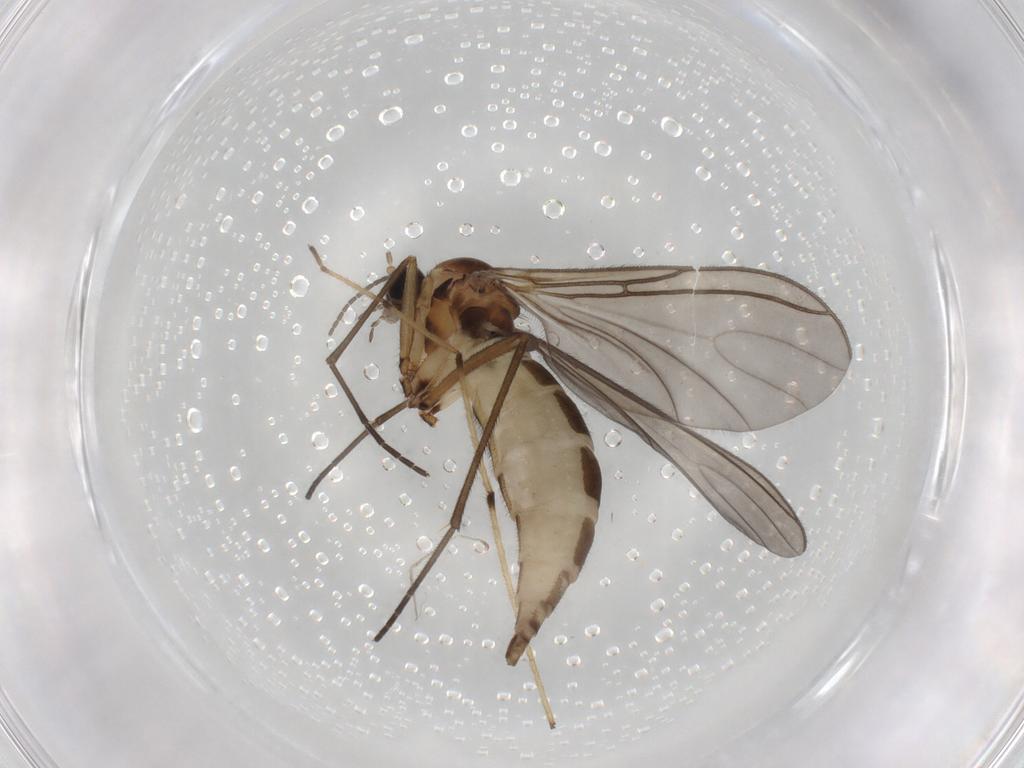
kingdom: Animalia
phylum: Arthropoda
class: Insecta
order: Diptera
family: Sciaridae
